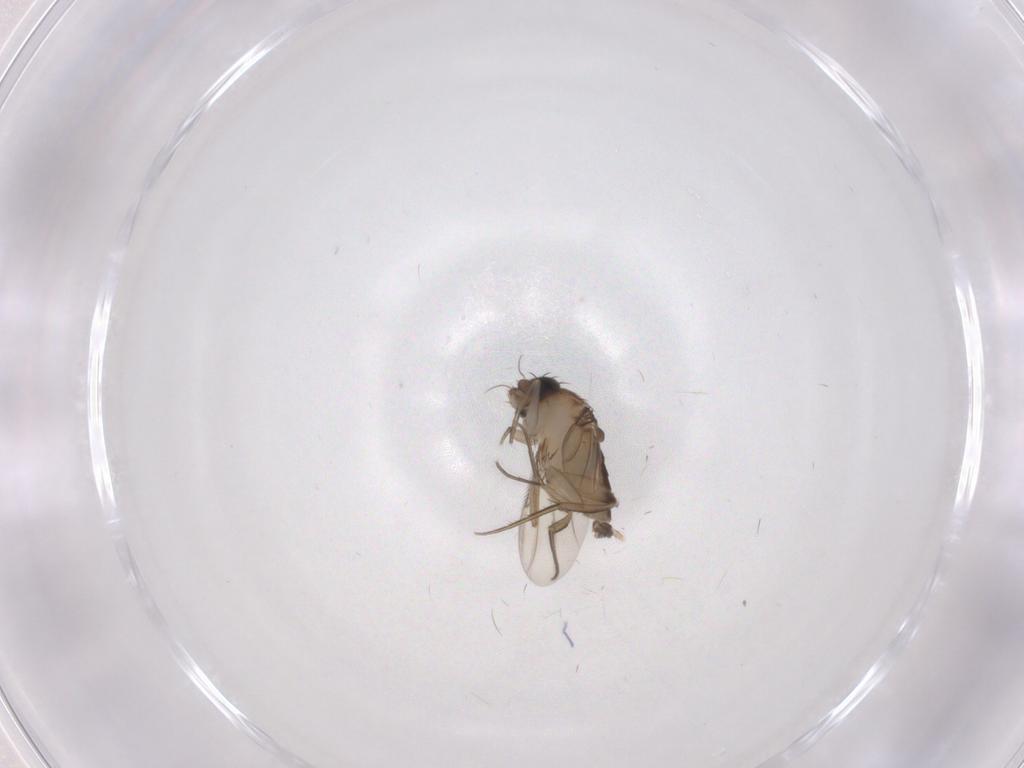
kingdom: Animalia
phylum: Arthropoda
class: Insecta
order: Diptera
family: Phoridae
